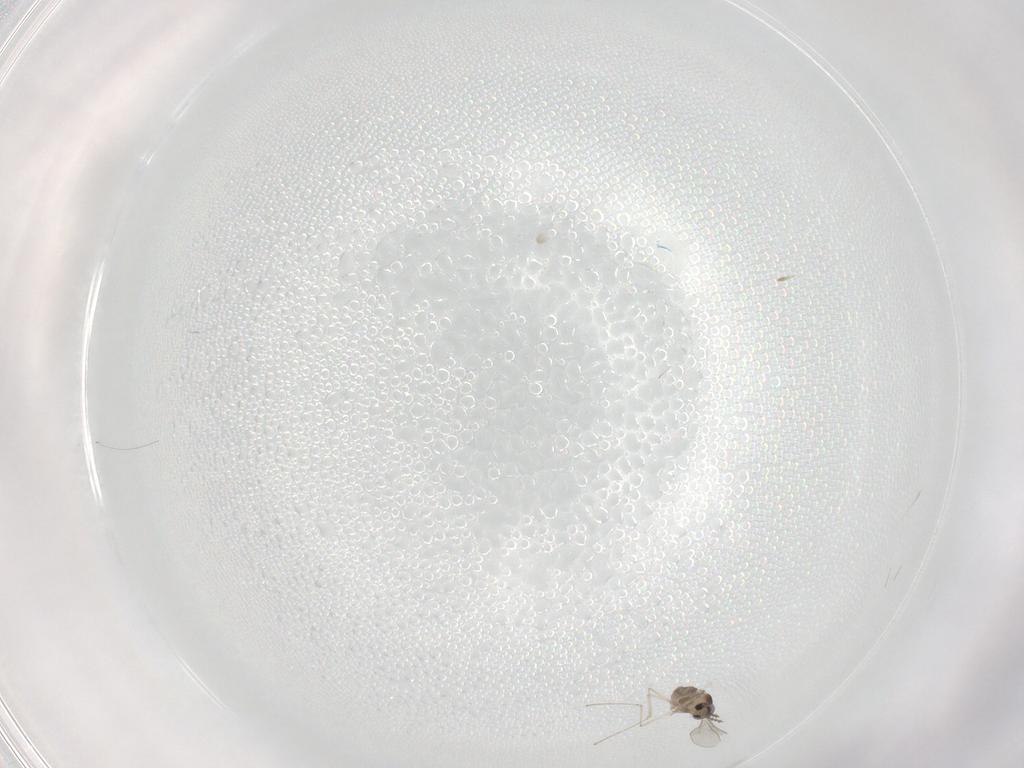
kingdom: Animalia
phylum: Arthropoda
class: Insecta
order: Diptera
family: Cecidomyiidae
